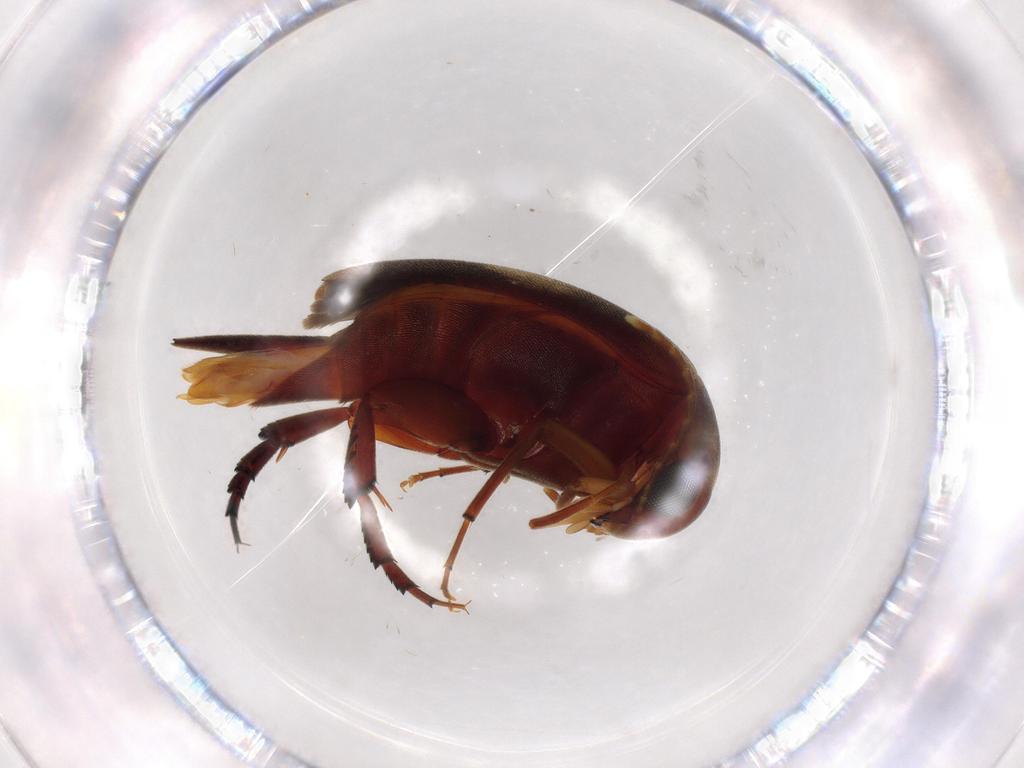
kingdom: Animalia
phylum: Arthropoda
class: Insecta
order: Coleoptera
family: Mordellidae
